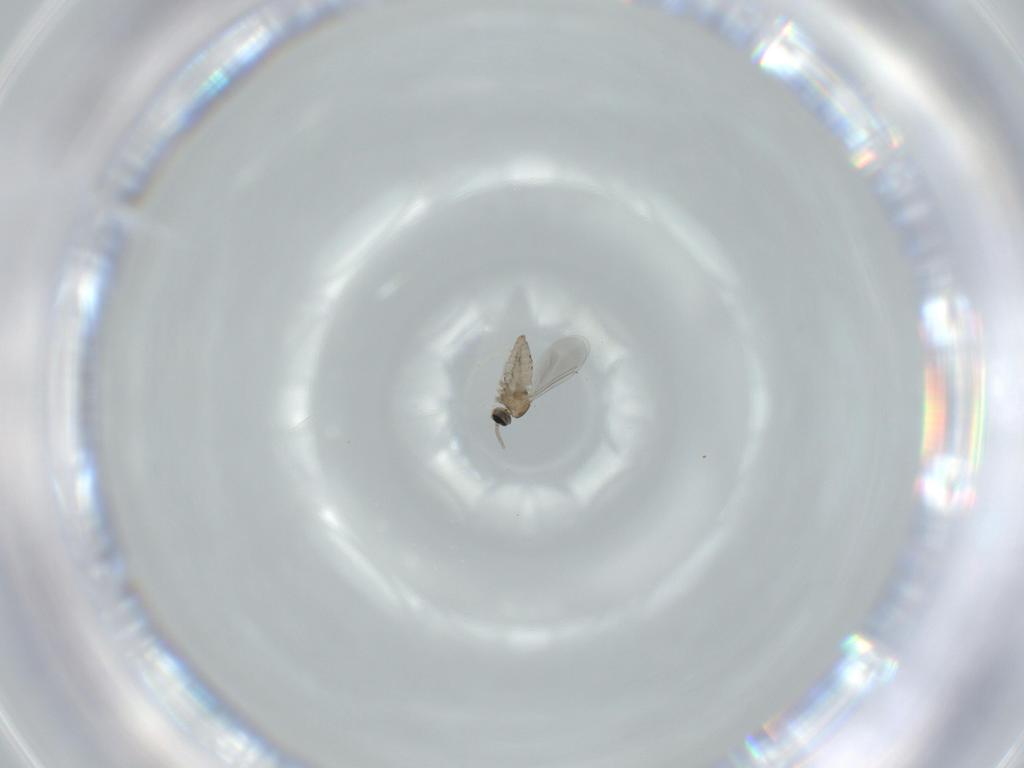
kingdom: Animalia
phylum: Arthropoda
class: Insecta
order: Diptera
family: Cecidomyiidae
